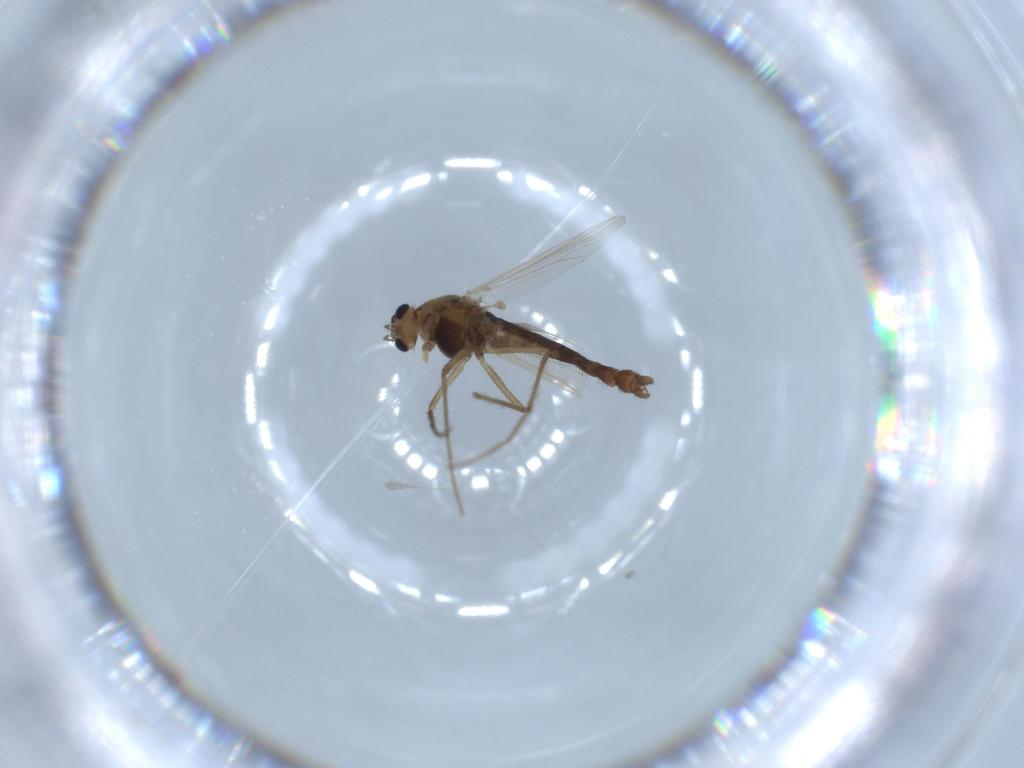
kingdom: Animalia
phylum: Arthropoda
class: Insecta
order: Diptera
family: Chironomidae
